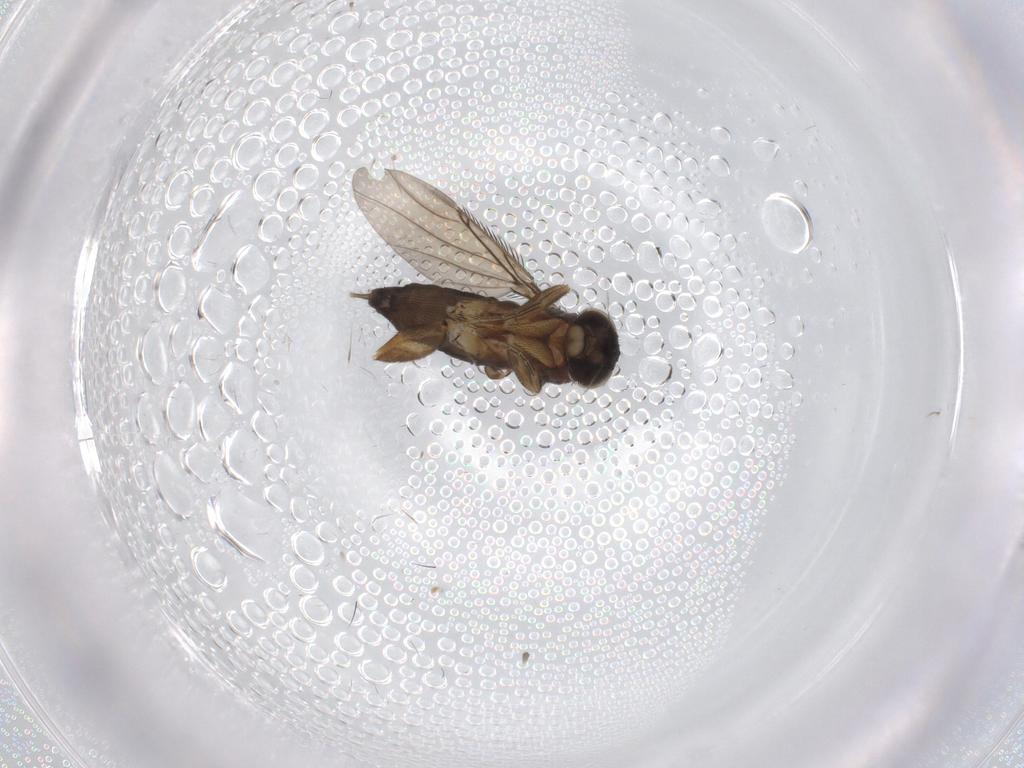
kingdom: Animalia
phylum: Arthropoda
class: Insecta
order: Diptera
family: Phoridae
